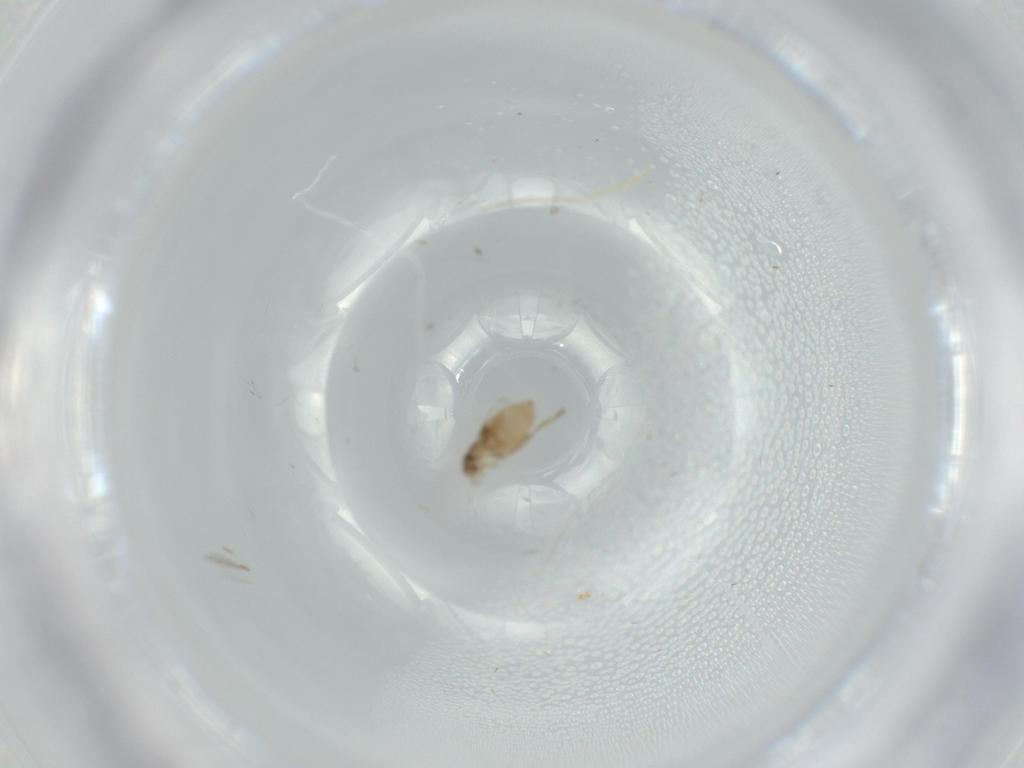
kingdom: Animalia
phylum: Arthropoda
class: Insecta
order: Diptera
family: Phoridae
